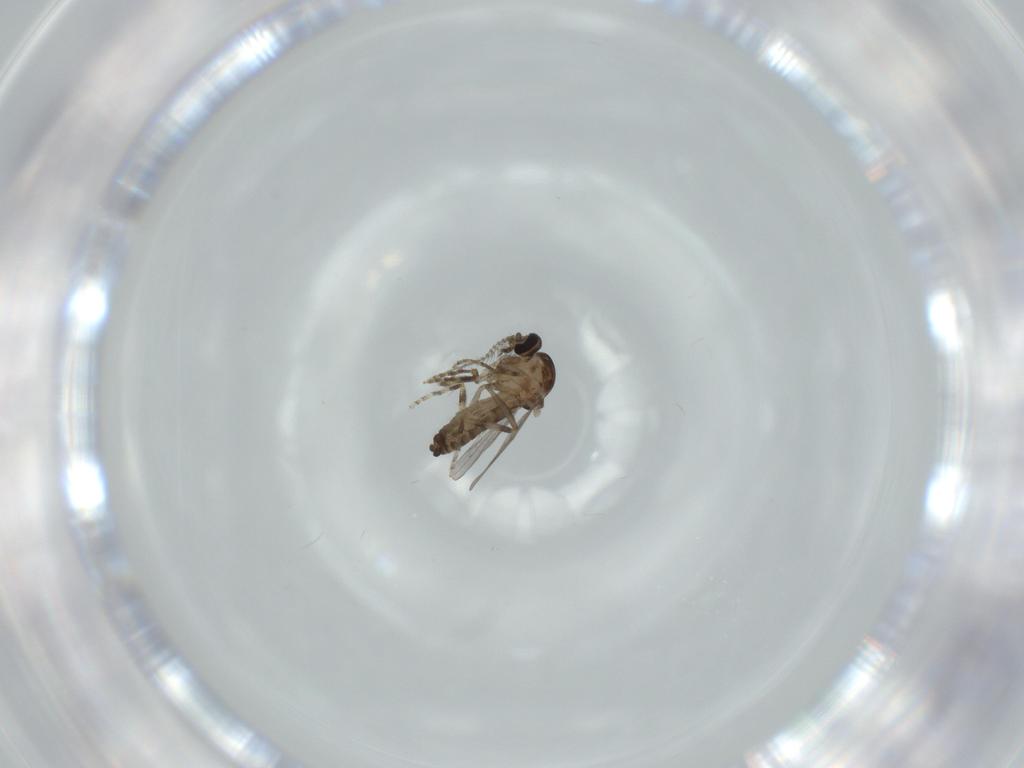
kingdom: Animalia
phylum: Arthropoda
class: Insecta
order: Diptera
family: Ceratopogonidae
